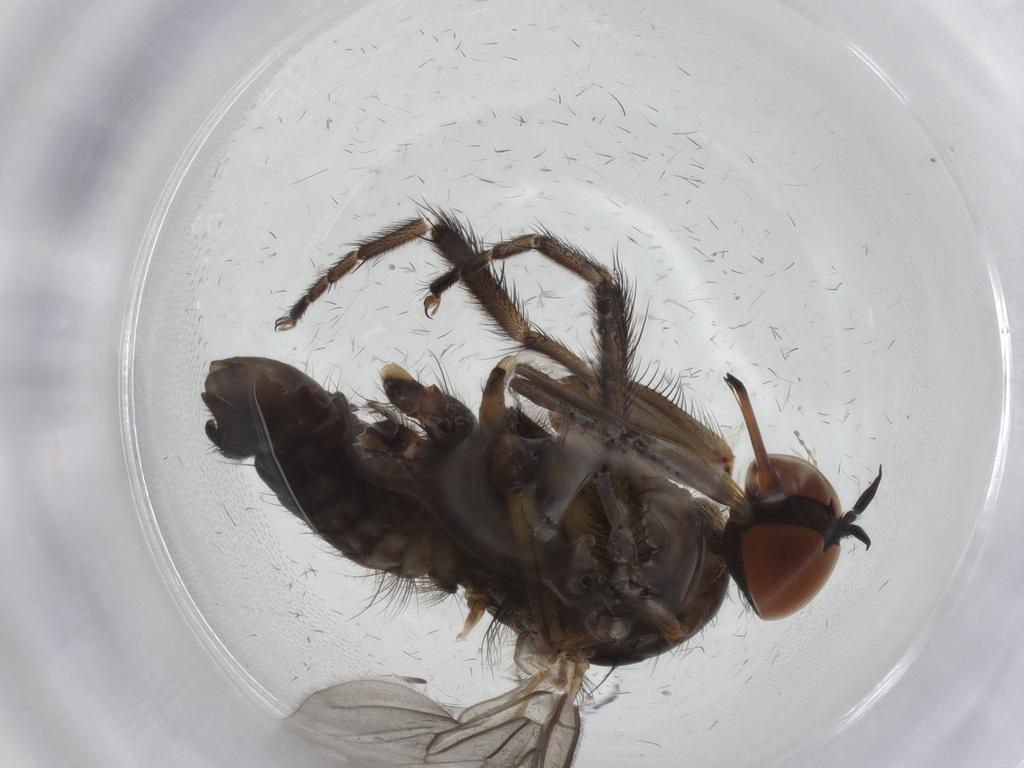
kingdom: Animalia
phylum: Arthropoda
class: Insecta
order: Diptera
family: Empididae
